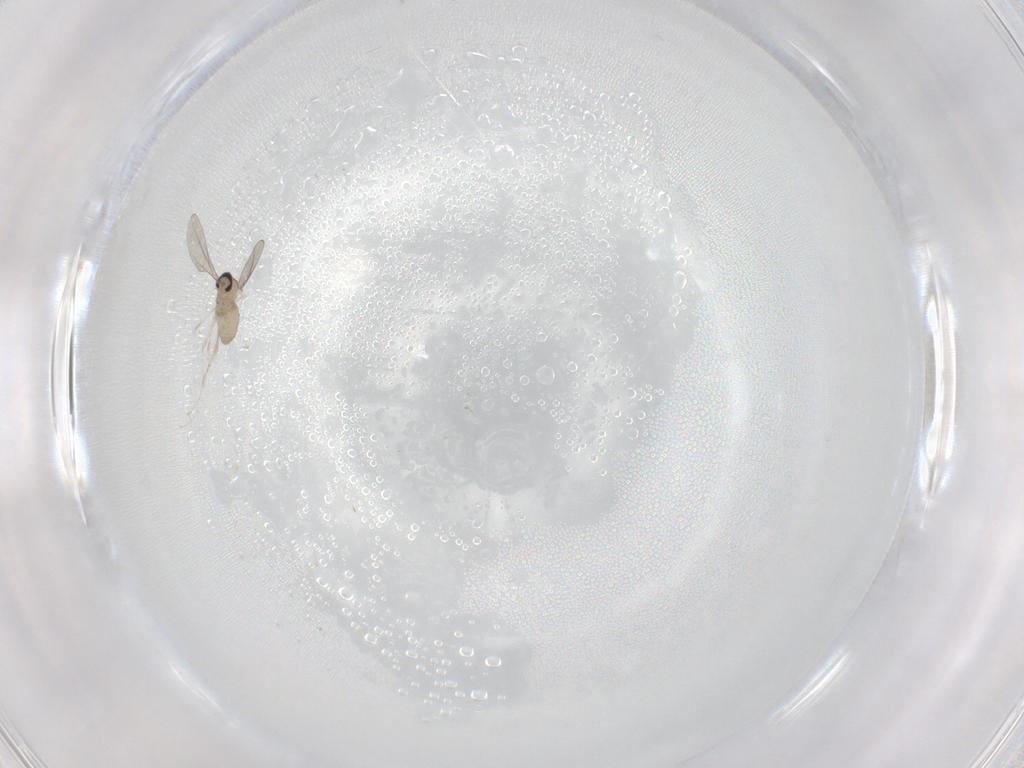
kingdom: Animalia
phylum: Arthropoda
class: Insecta
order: Diptera
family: Cecidomyiidae
